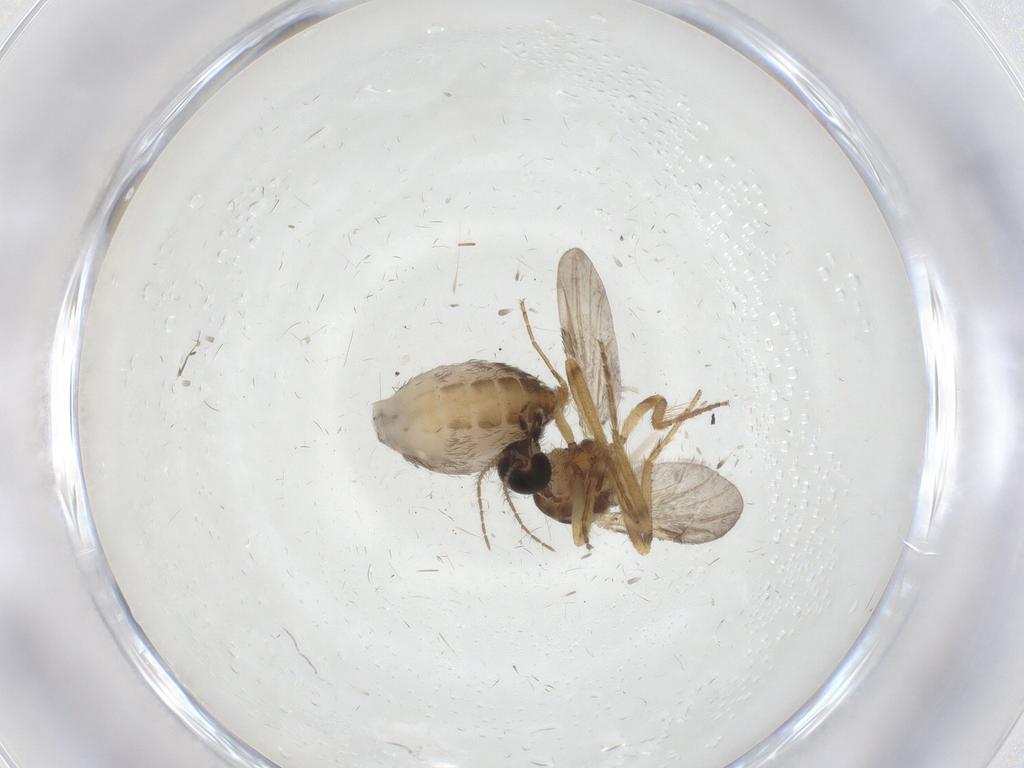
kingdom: Animalia
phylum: Arthropoda
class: Insecta
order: Diptera
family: Ceratopogonidae
